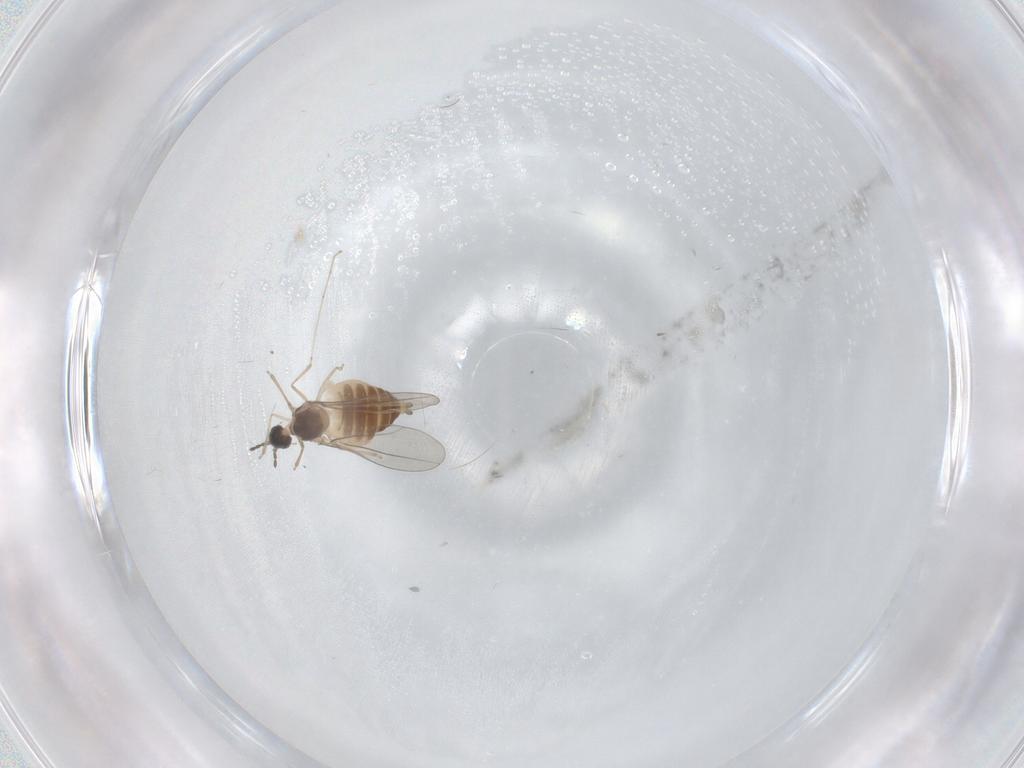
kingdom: Animalia
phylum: Arthropoda
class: Insecta
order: Diptera
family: Cecidomyiidae
